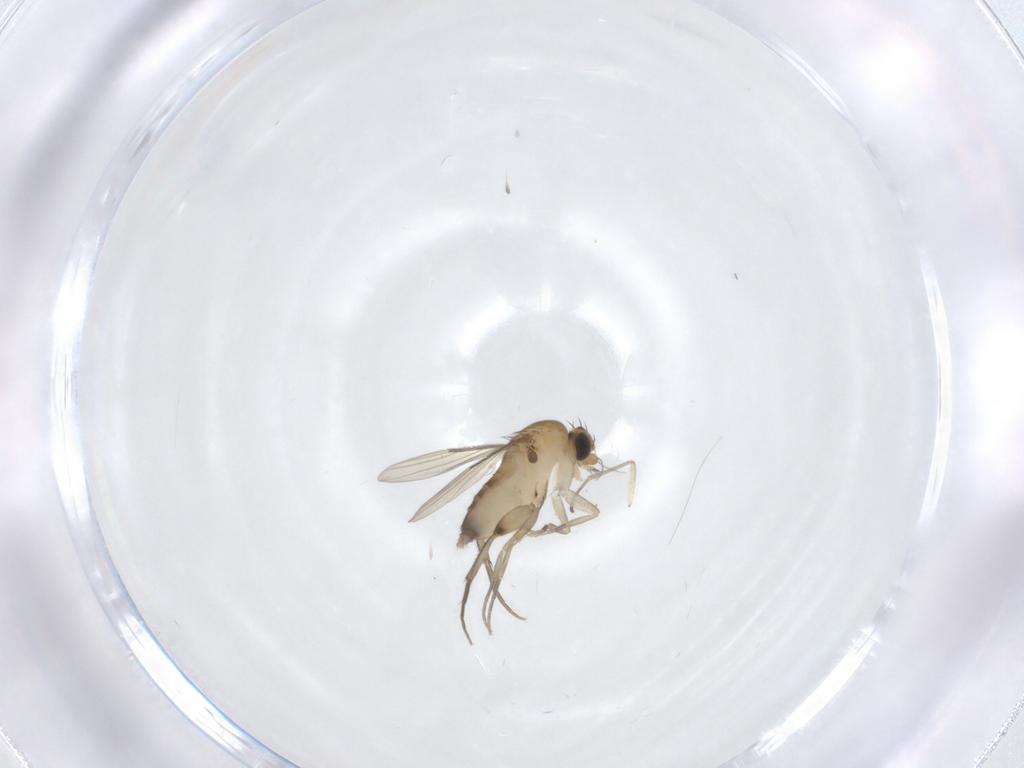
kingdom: Animalia
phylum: Arthropoda
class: Insecta
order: Diptera
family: Phoridae
